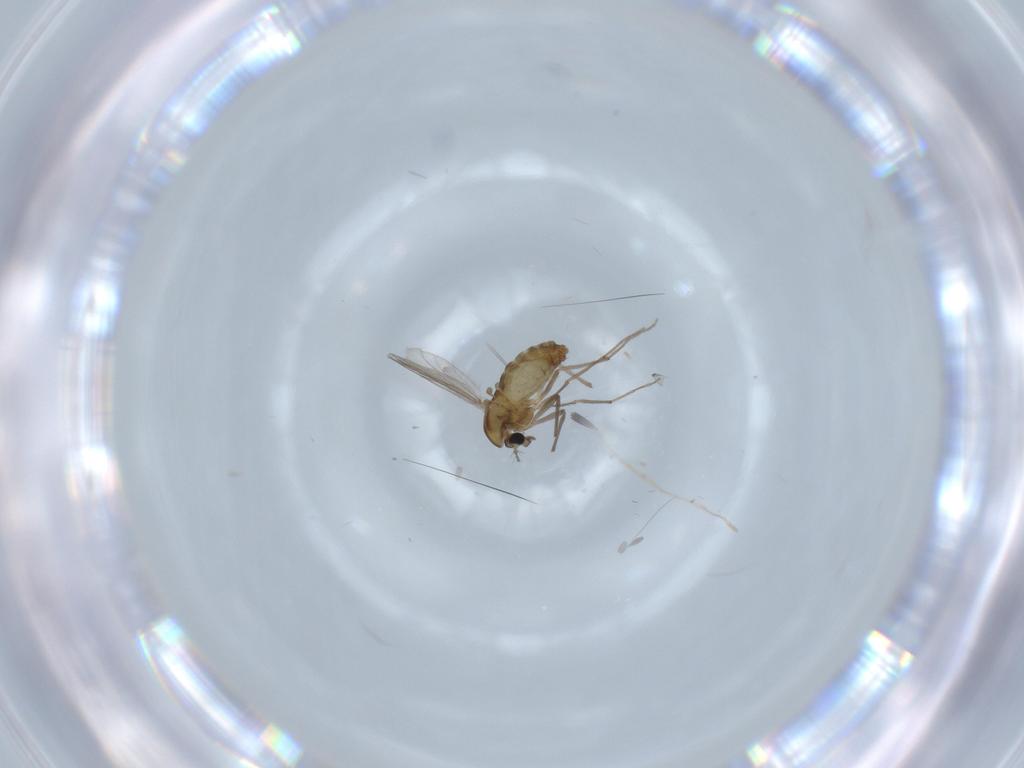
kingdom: Animalia
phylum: Arthropoda
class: Insecta
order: Diptera
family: Chironomidae
